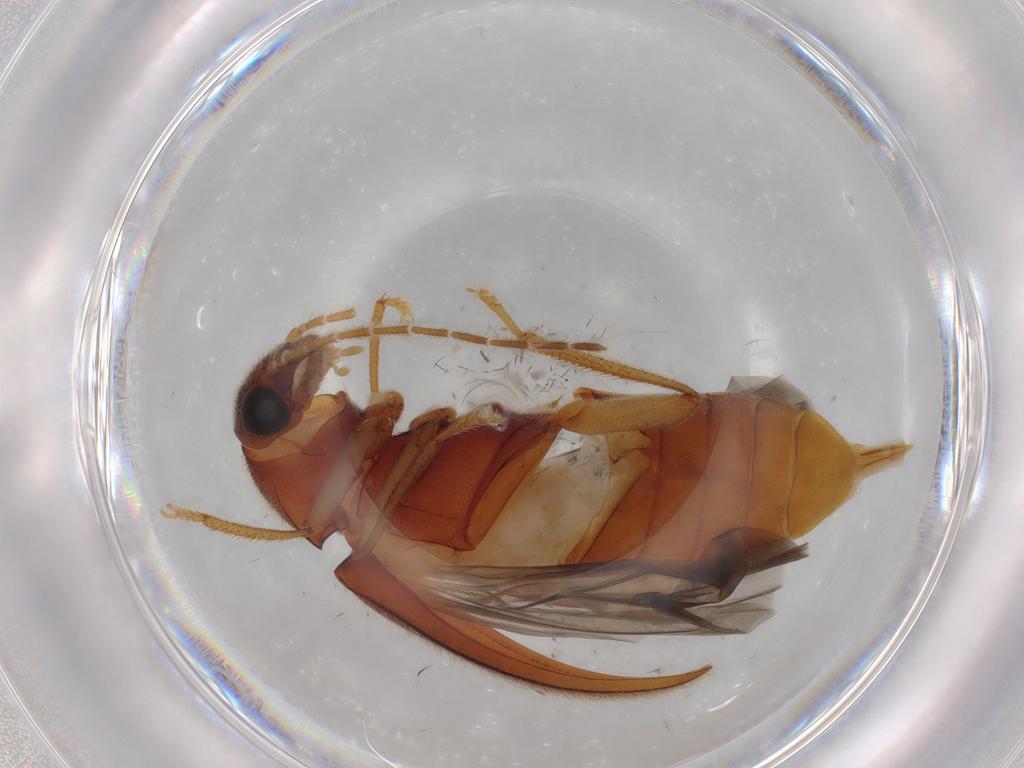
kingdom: Animalia
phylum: Arthropoda
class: Insecta
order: Coleoptera
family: Ptilodactylidae
